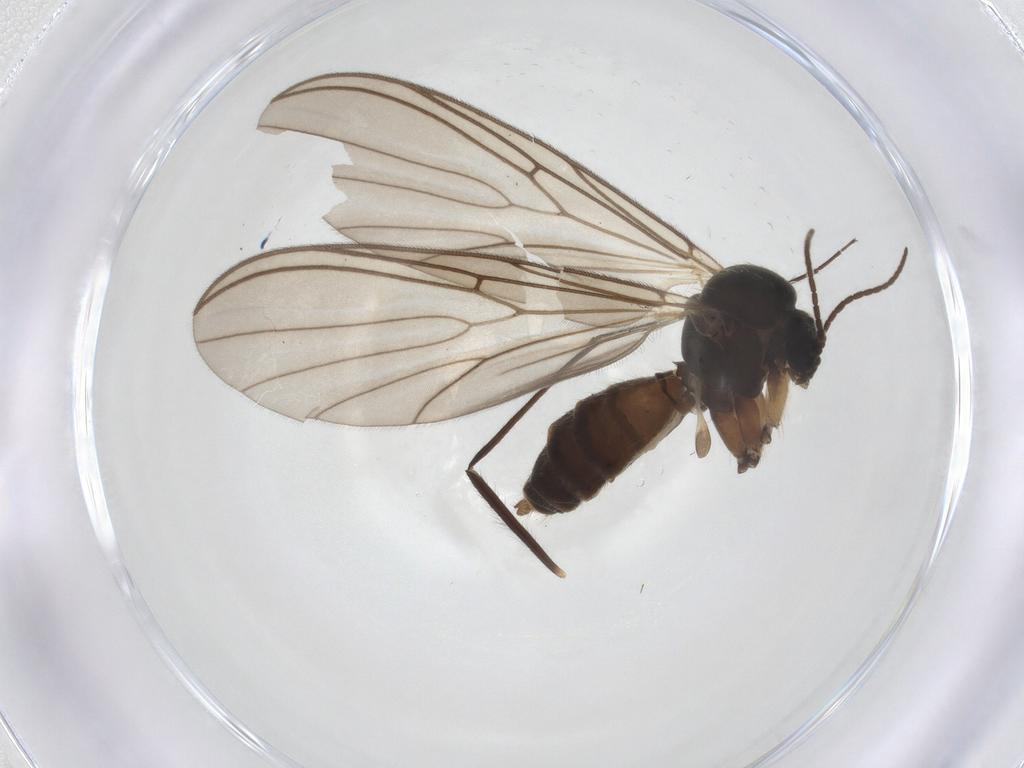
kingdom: Animalia
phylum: Arthropoda
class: Insecta
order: Diptera
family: Mycetophilidae
